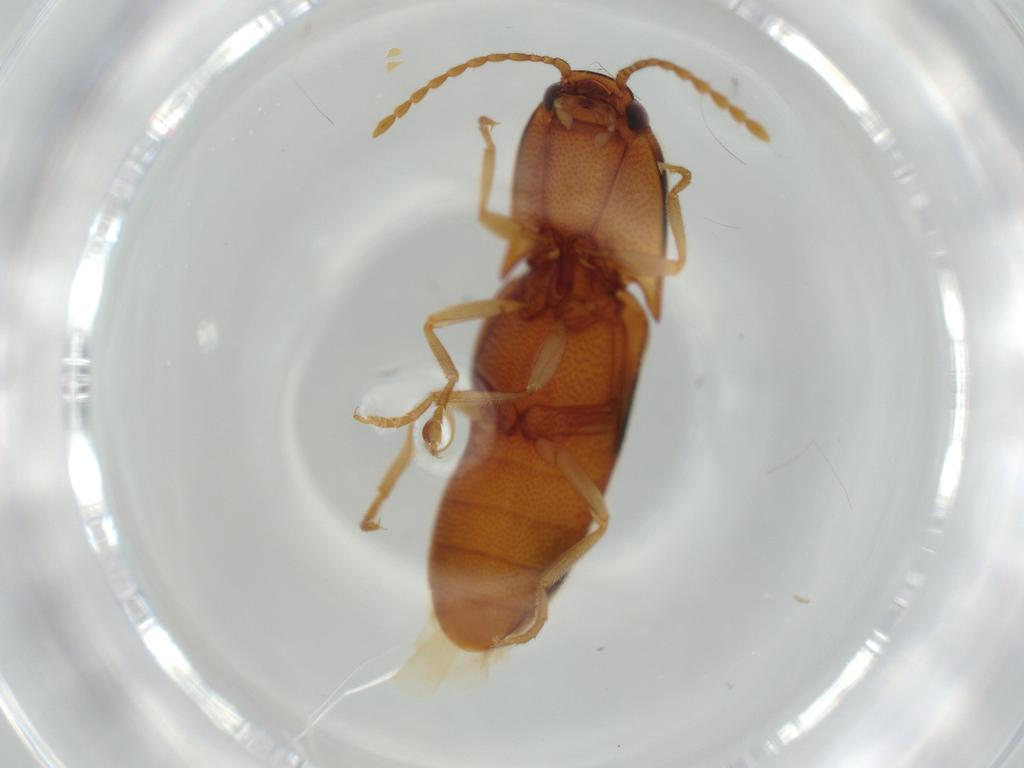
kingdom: Animalia
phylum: Arthropoda
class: Insecta
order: Coleoptera
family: Elateridae
